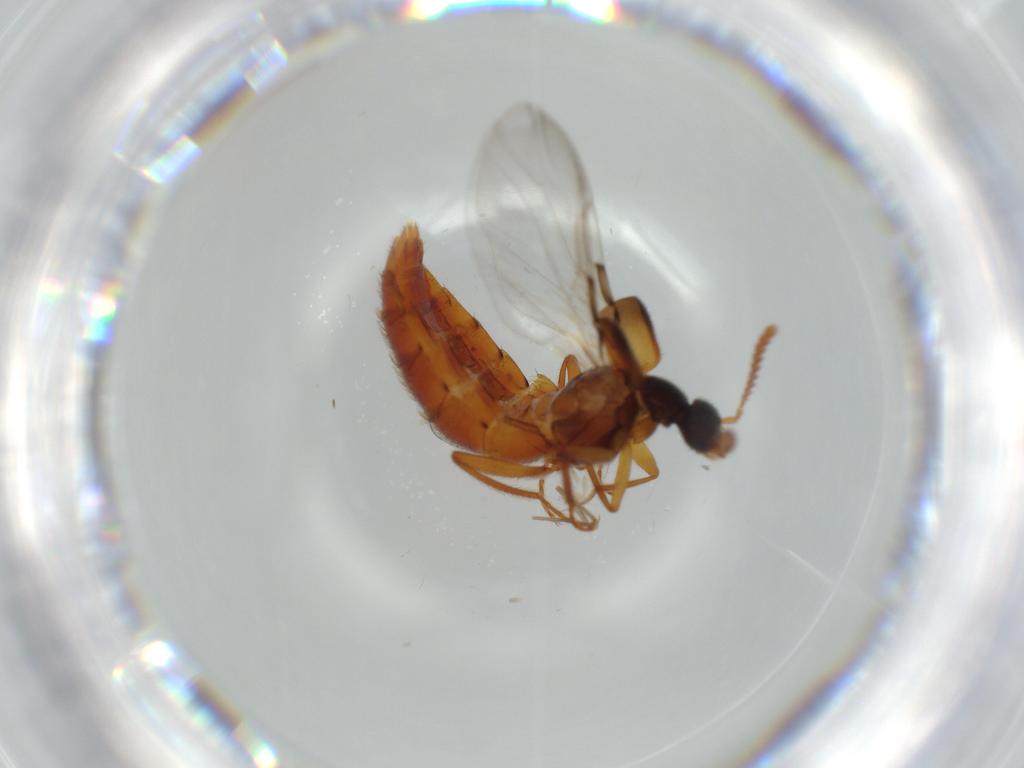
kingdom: Animalia
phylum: Arthropoda
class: Insecta
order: Coleoptera
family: Staphylinidae
